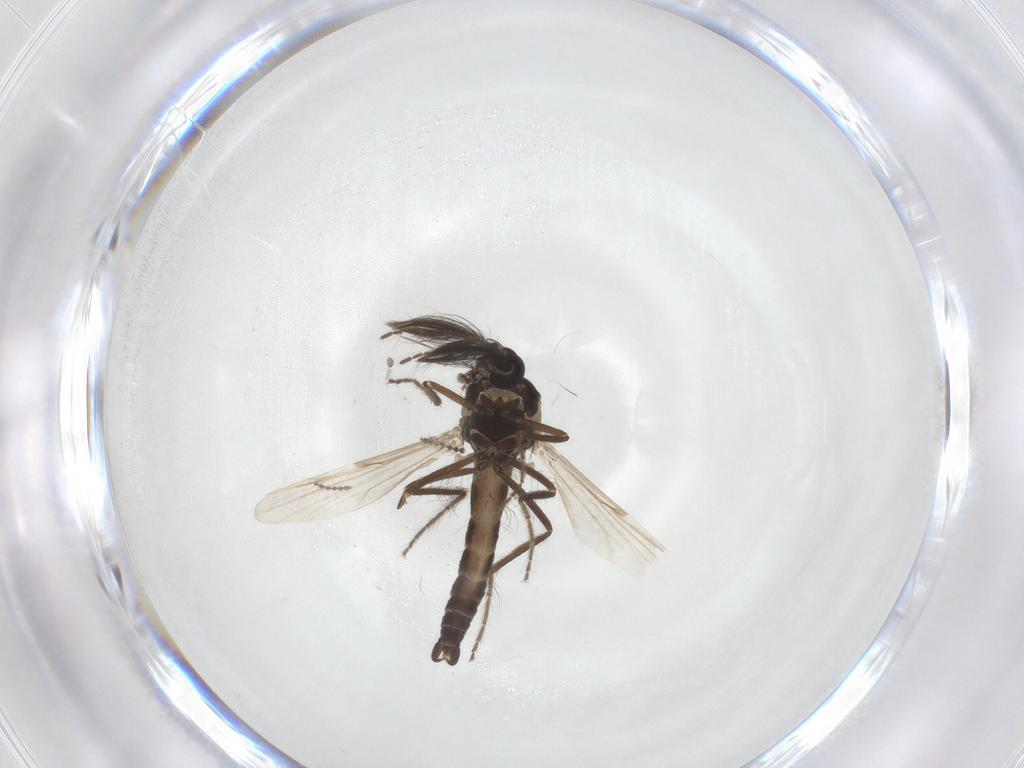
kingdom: Animalia
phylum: Arthropoda
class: Insecta
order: Diptera
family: Ceratopogonidae
